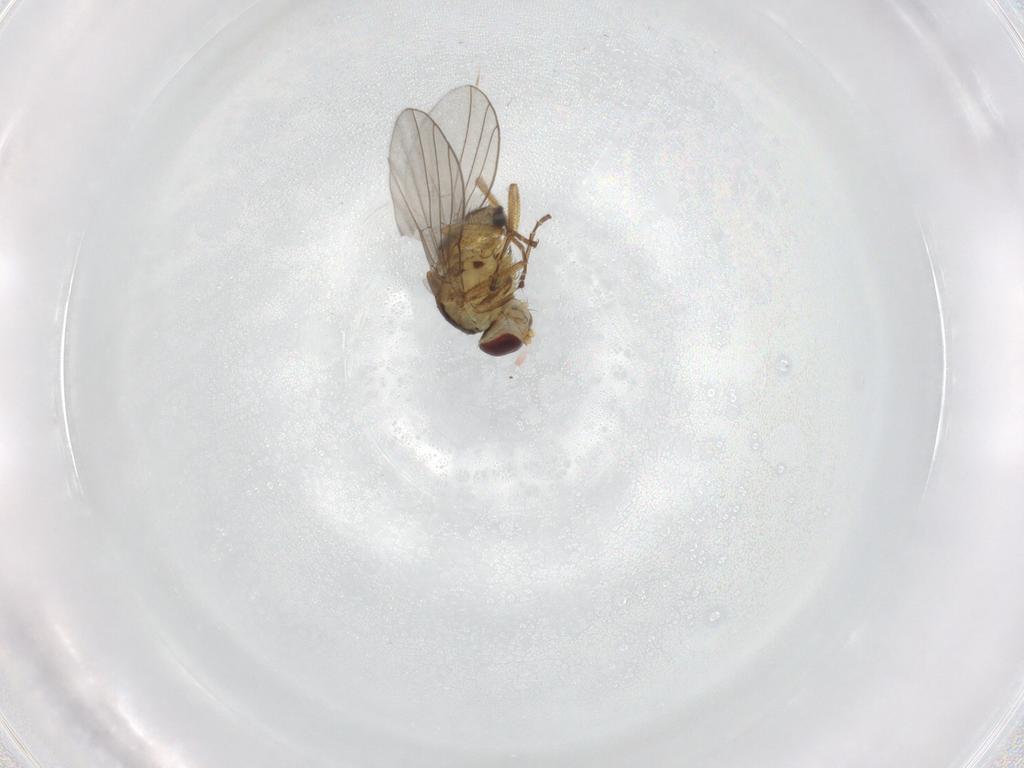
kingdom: Animalia
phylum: Arthropoda
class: Insecta
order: Diptera
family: Agromyzidae
